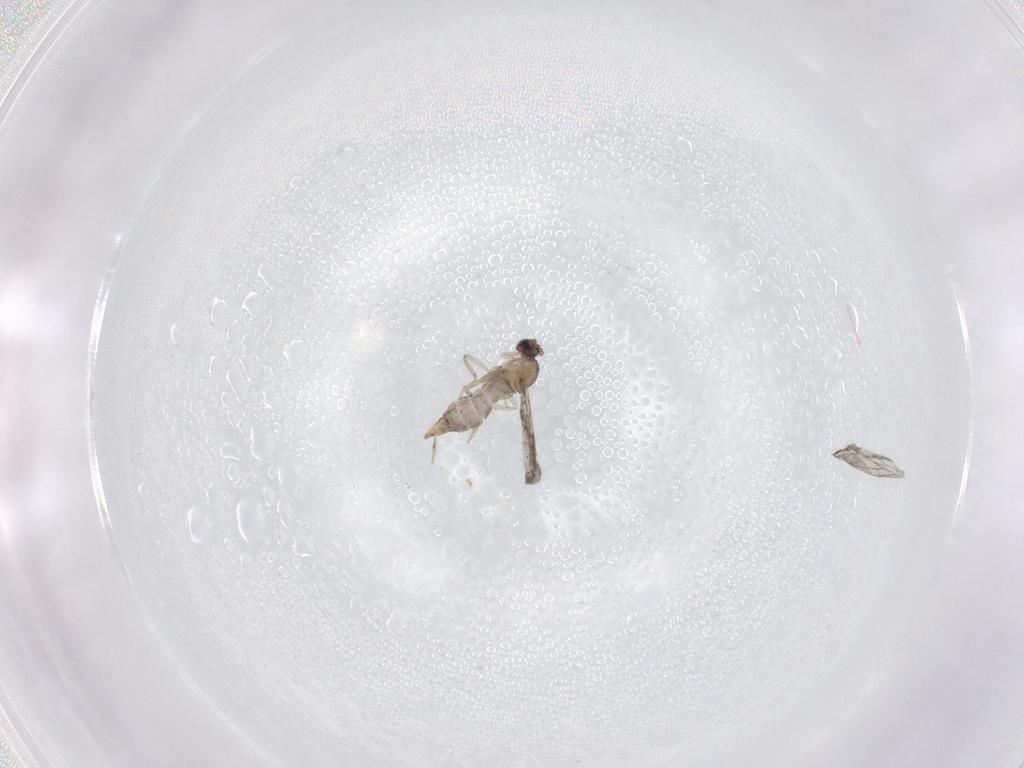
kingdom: Animalia
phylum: Arthropoda
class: Insecta
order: Diptera
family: Cecidomyiidae
